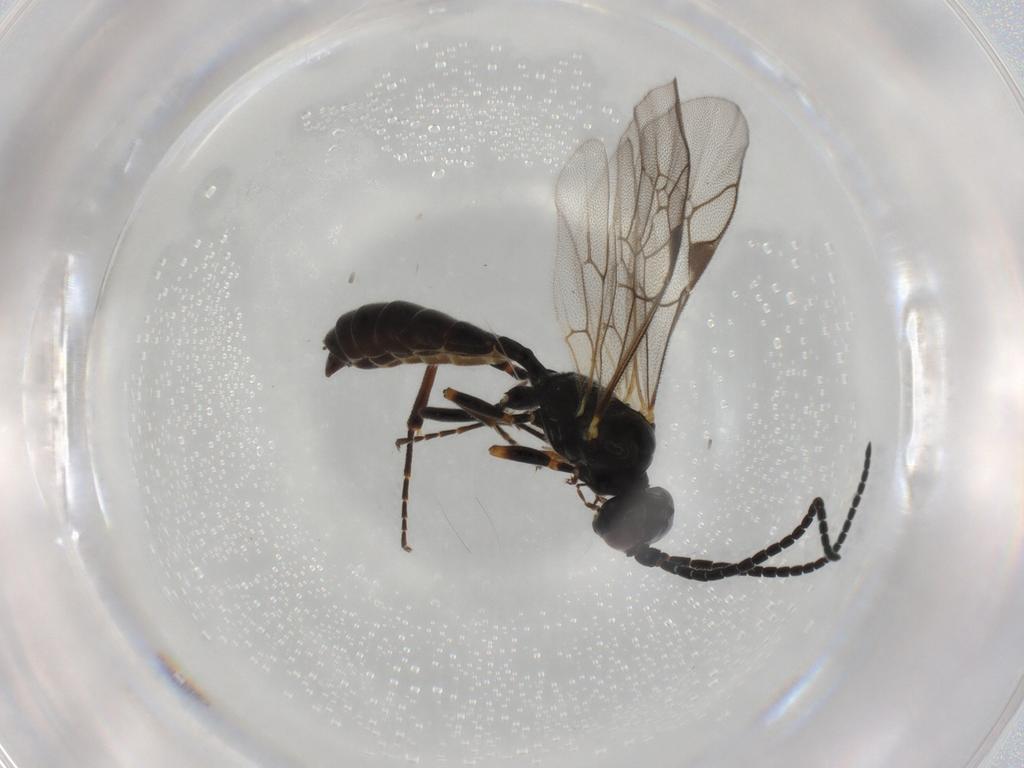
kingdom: Animalia
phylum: Arthropoda
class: Insecta
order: Hymenoptera
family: Ichneumonidae
